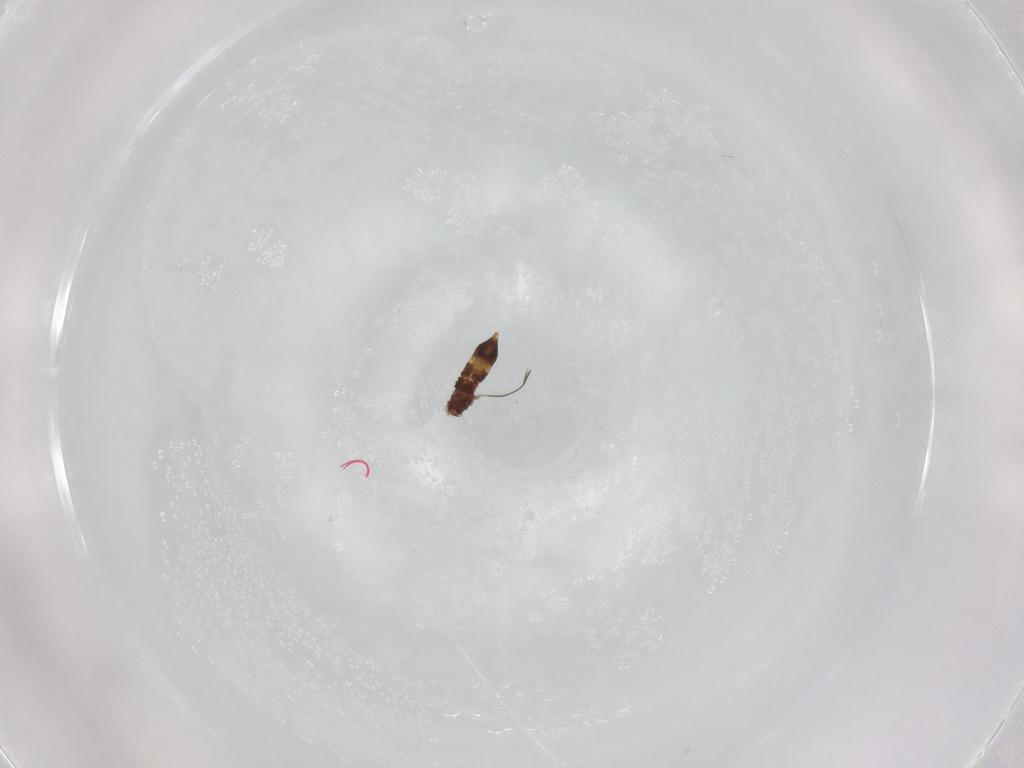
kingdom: Animalia
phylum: Arthropoda
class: Insecta
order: Thysanoptera
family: Thripidae
